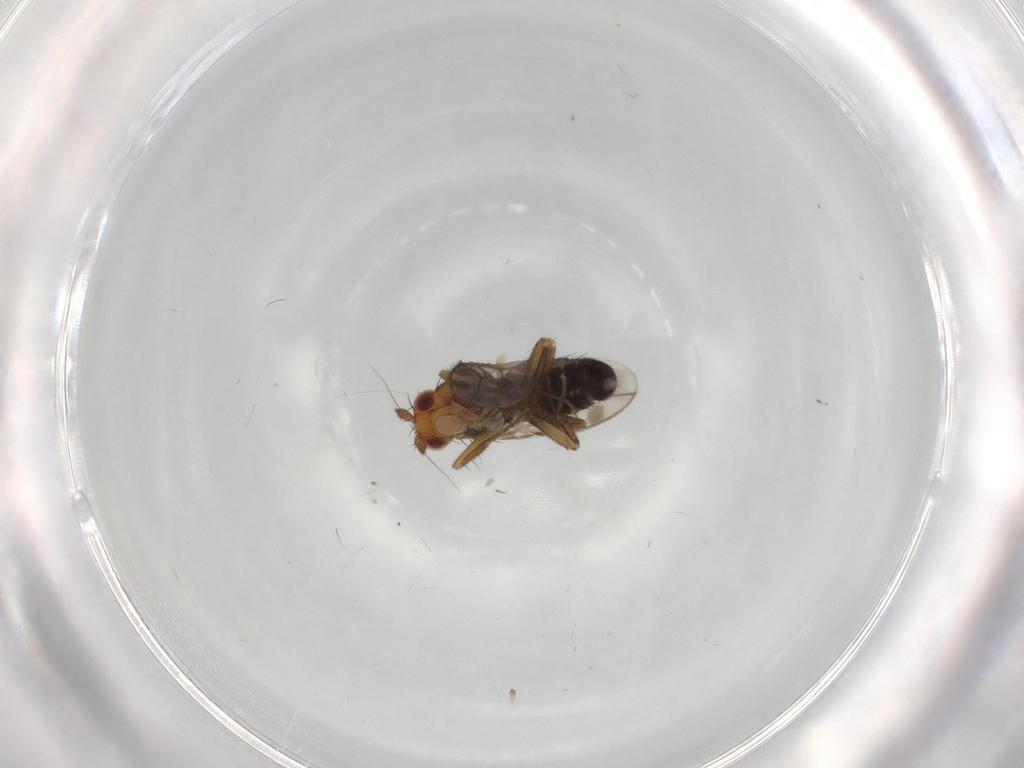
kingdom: Animalia
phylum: Arthropoda
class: Insecta
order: Diptera
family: Sphaeroceridae
